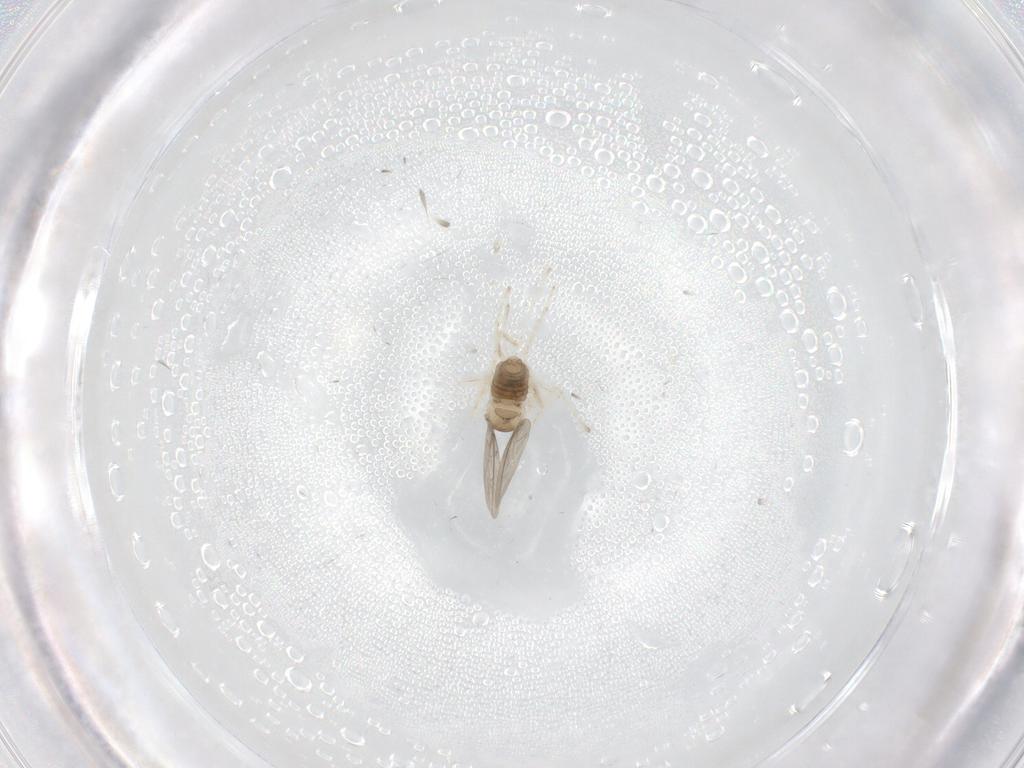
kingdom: Animalia
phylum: Arthropoda
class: Insecta
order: Diptera
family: Cecidomyiidae
